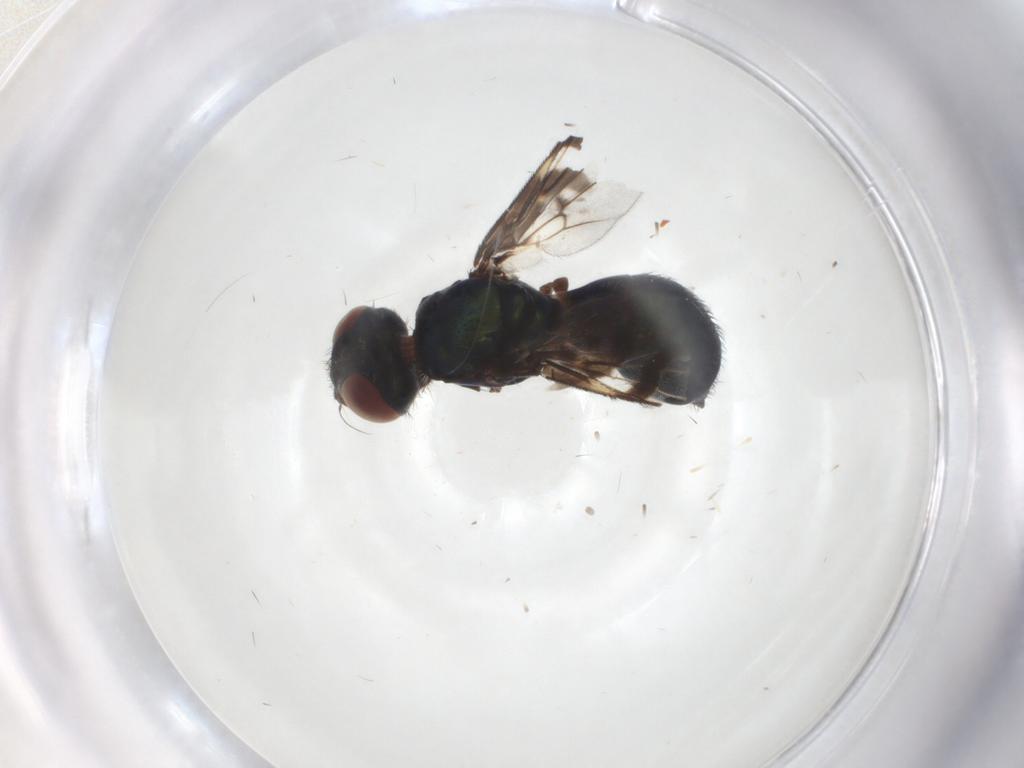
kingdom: Animalia
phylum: Arthropoda
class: Insecta
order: Diptera
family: Platystomatidae
